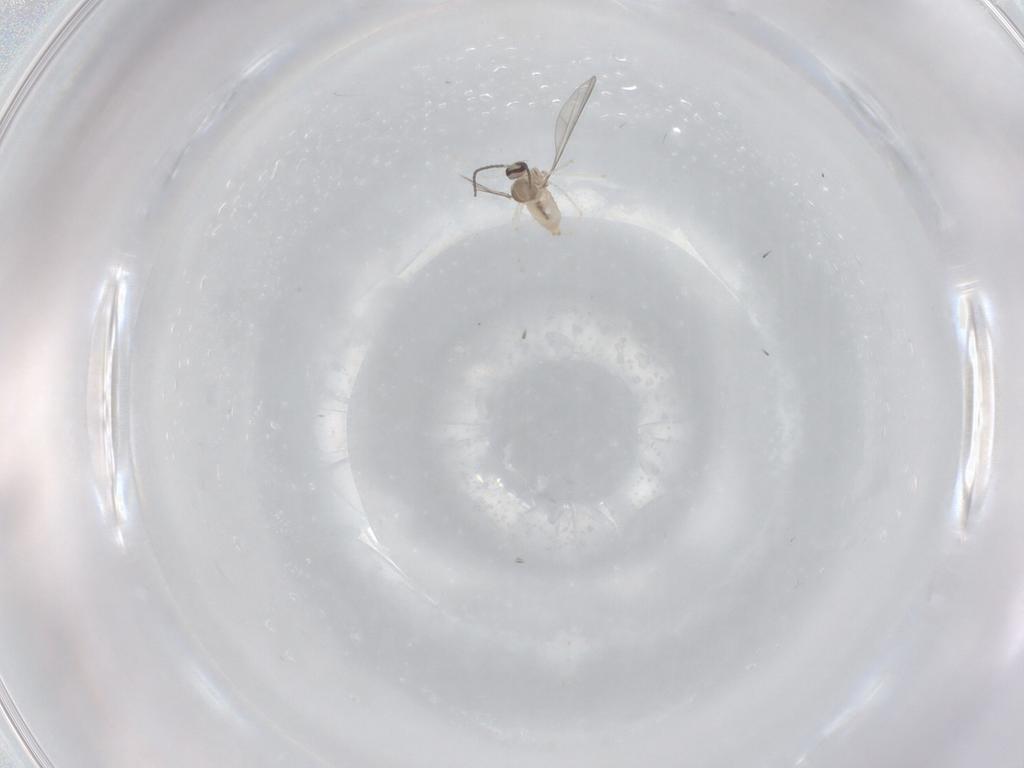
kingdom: Animalia
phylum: Arthropoda
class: Insecta
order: Diptera
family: Cecidomyiidae
